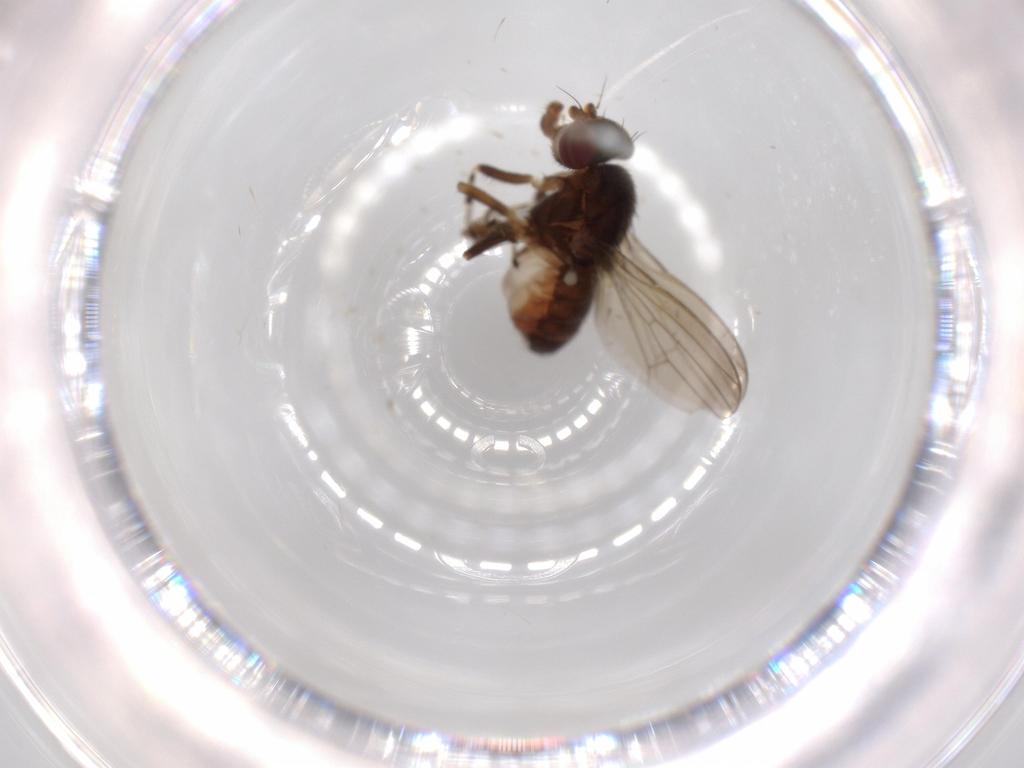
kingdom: Animalia
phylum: Arthropoda
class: Insecta
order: Diptera
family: Heleomyzidae
